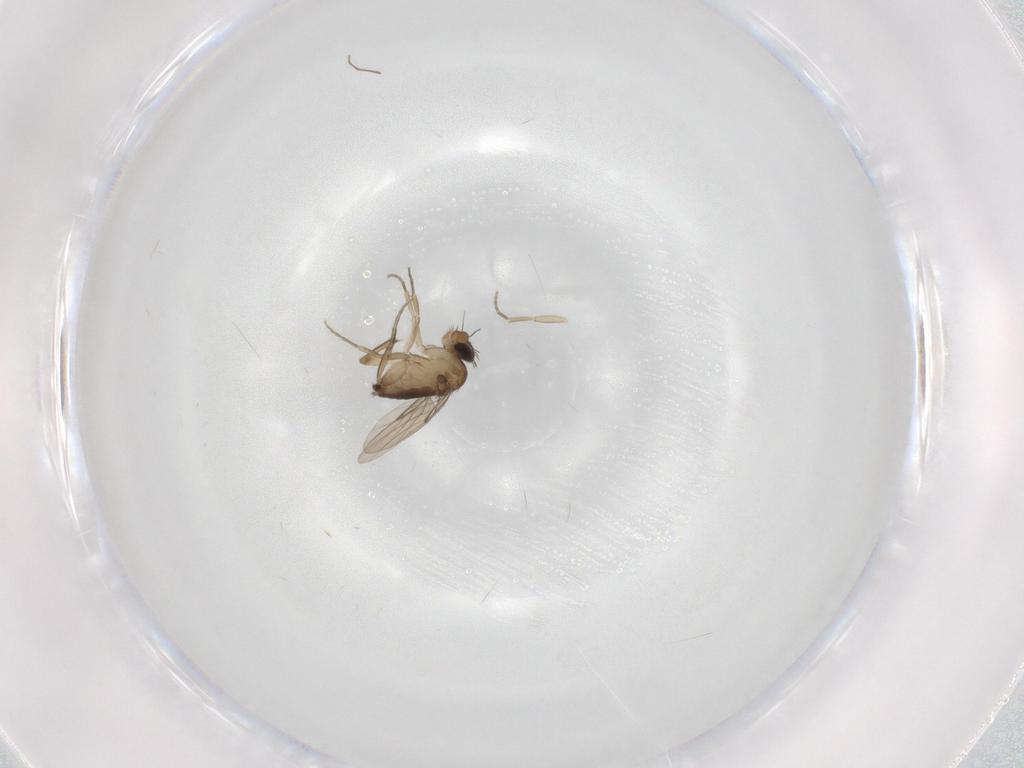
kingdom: Animalia
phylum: Arthropoda
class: Insecta
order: Diptera
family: Phoridae
